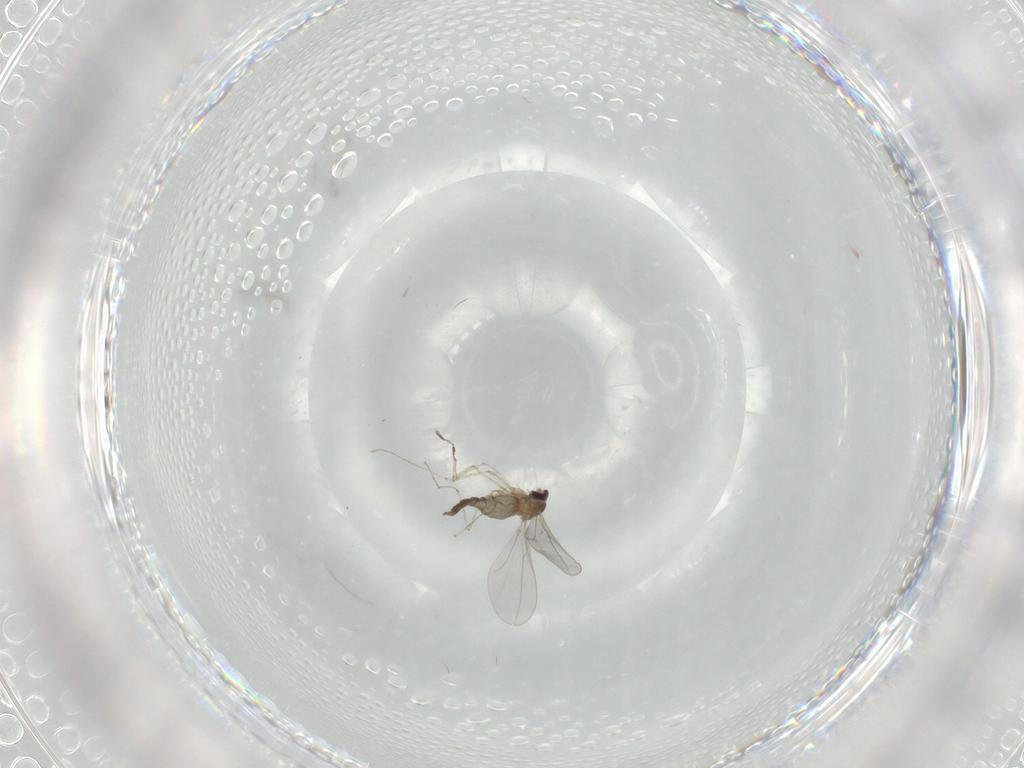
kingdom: Animalia
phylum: Arthropoda
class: Insecta
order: Diptera
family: Cecidomyiidae
